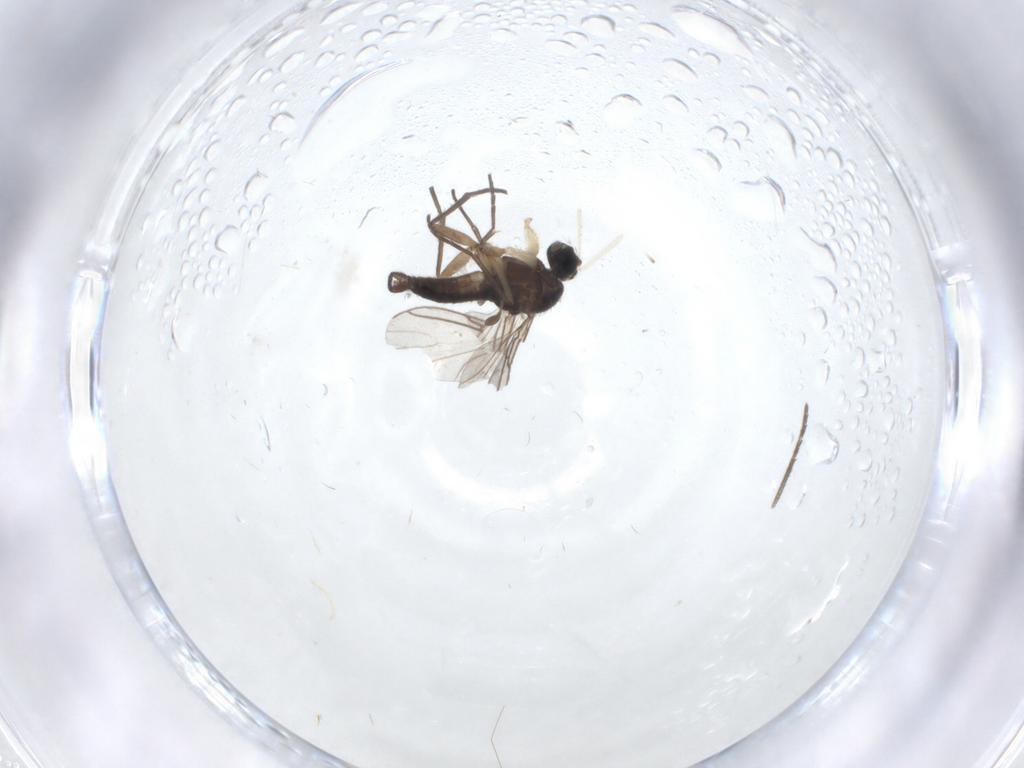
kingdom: Animalia
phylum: Arthropoda
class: Insecta
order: Diptera
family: Sciaridae
